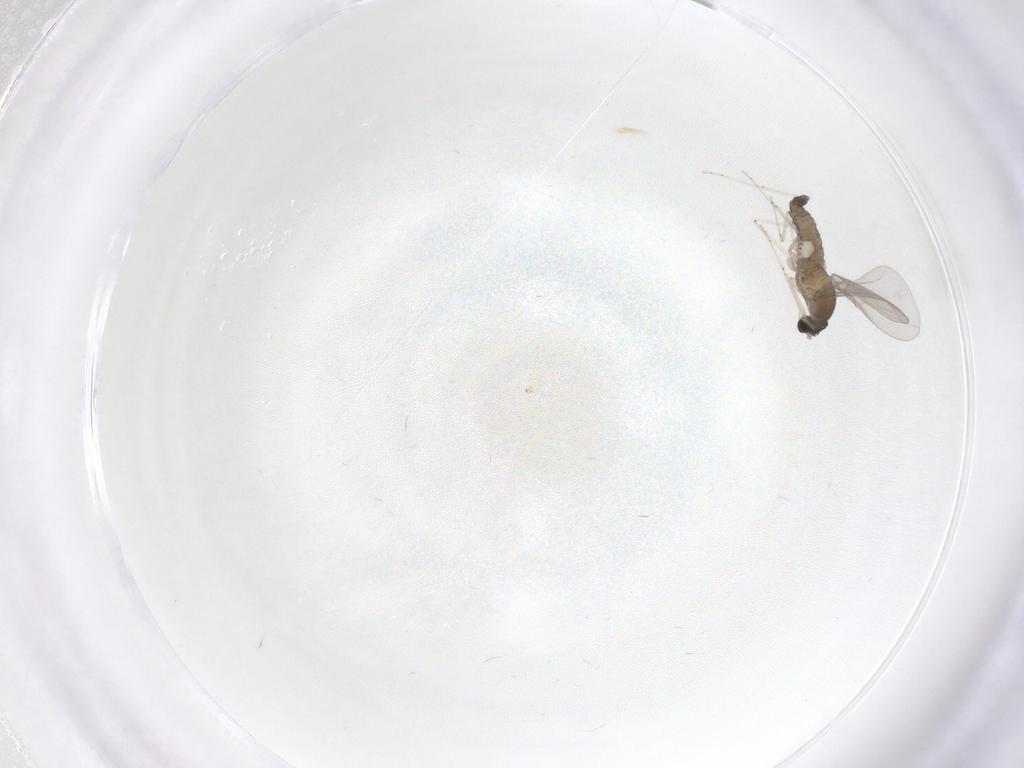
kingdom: Animalia
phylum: Arthropoda
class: Insecta
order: Diptera
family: Cecidomyiidae
